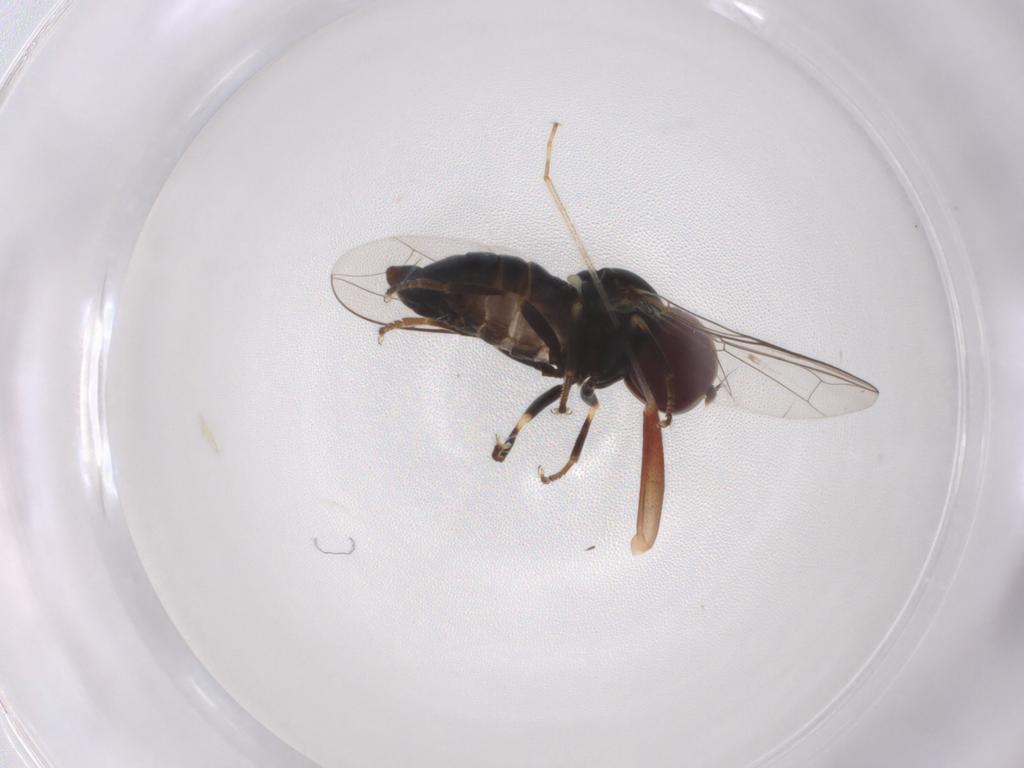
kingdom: Animalia
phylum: Arthropoda
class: Insecta
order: Diptera
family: Pipunculidae
